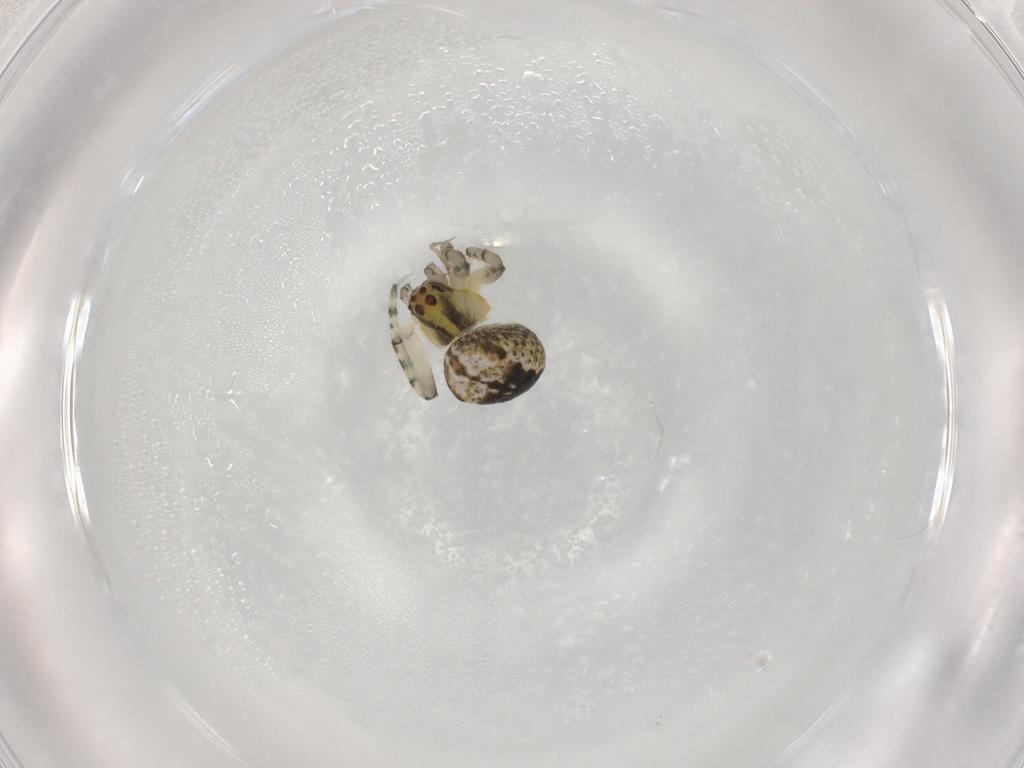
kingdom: Animalia
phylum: Arthropoda
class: Arachnida
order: Araneae
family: Araneidae
